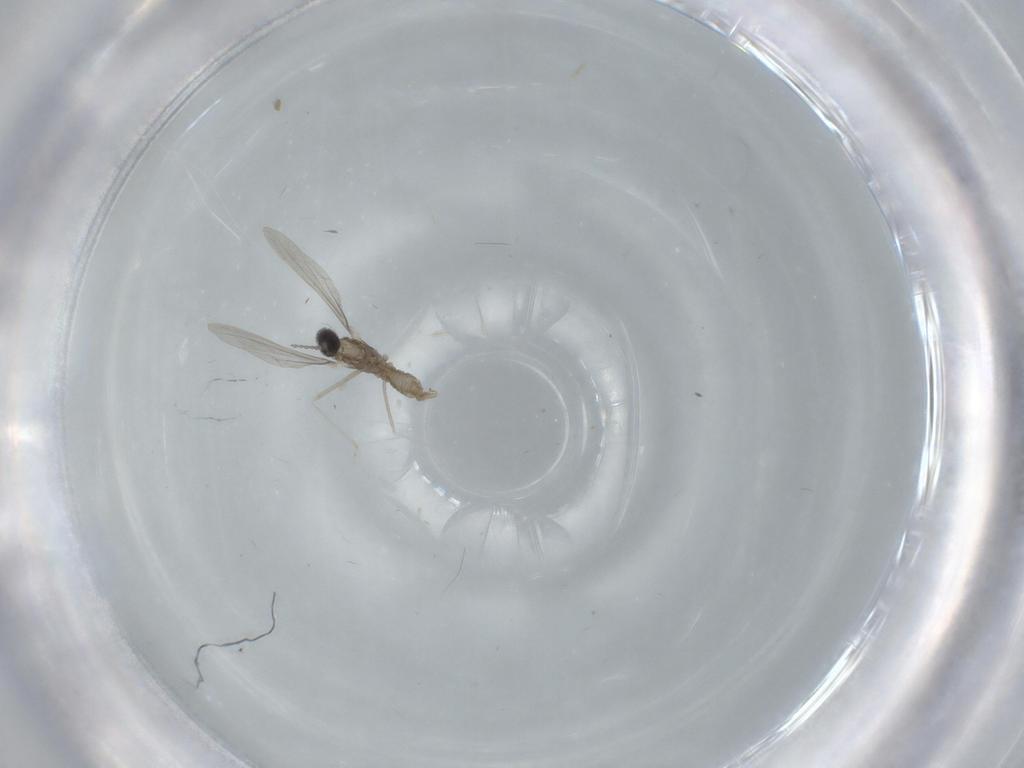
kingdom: Animalia
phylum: Arthropoda
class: Insecta
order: Diptera
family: Cecidomyiidae
